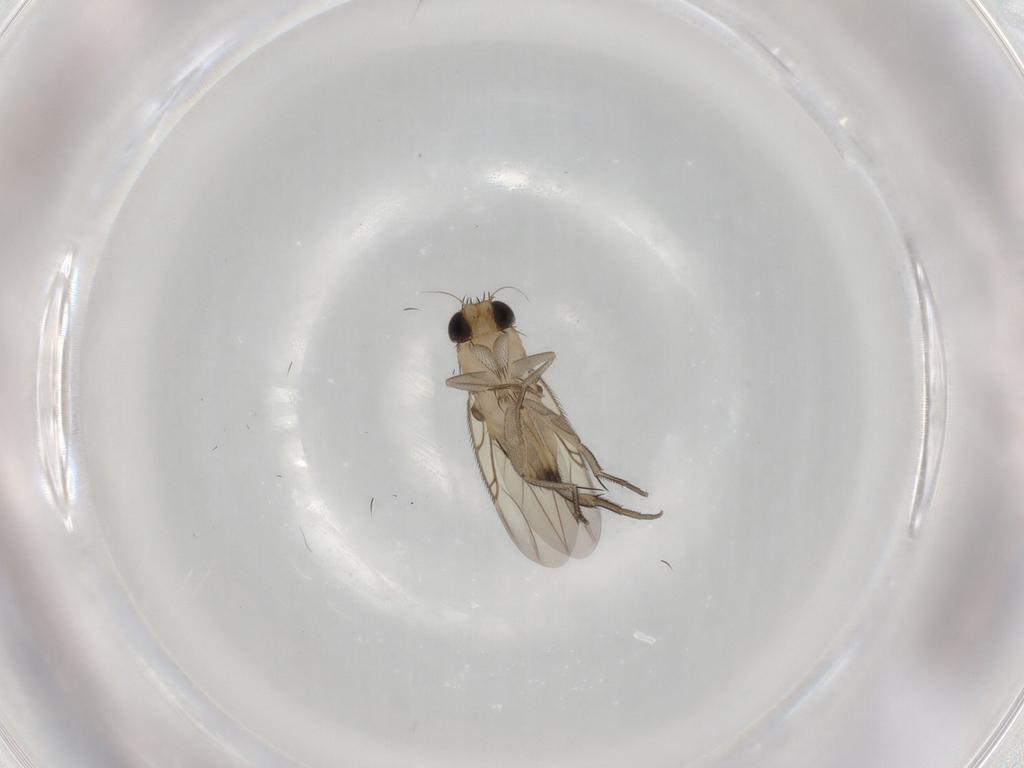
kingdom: Animalia
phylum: Arthropoda
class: Insecta
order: Diptera
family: Phoridae
